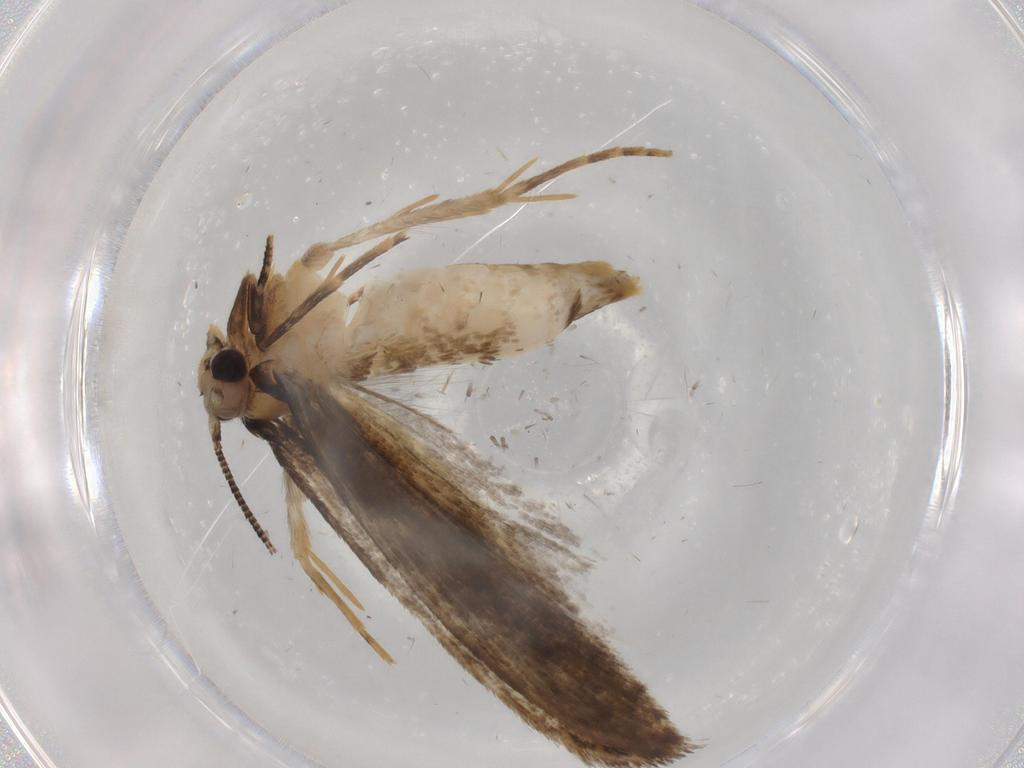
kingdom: Animalia
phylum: Arthropoda
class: Insecta
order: Lepidoptera
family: Tineidae
